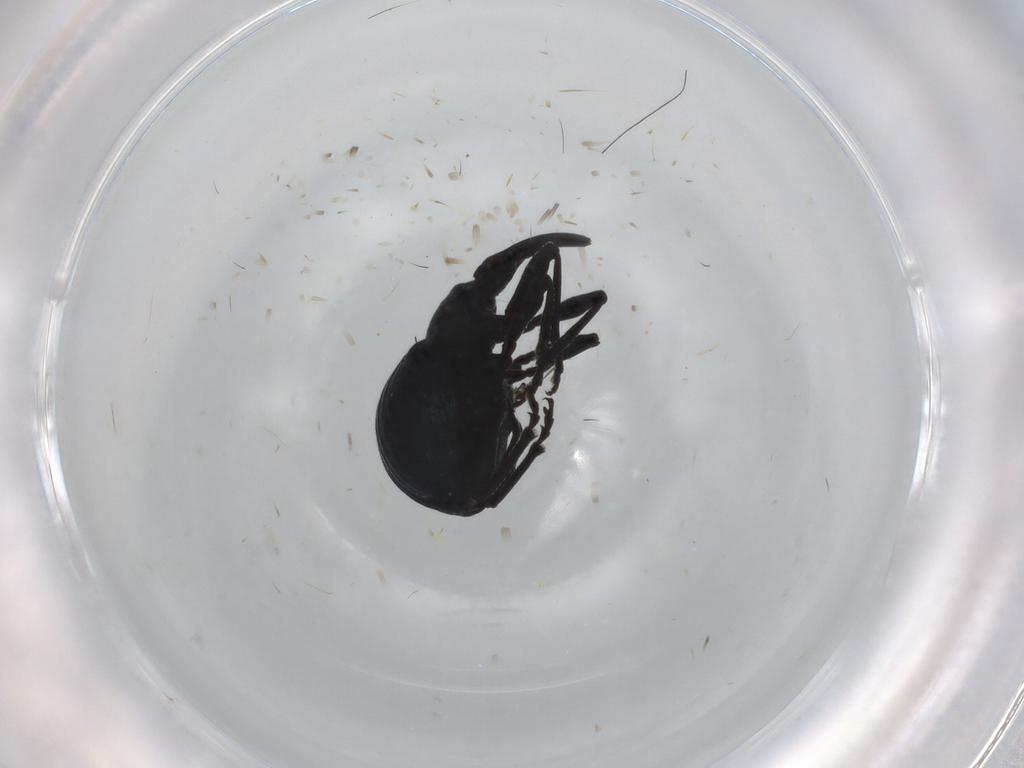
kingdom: Animalia
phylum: Arthropoda
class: Insecta
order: Coleoptera
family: Apionidae
